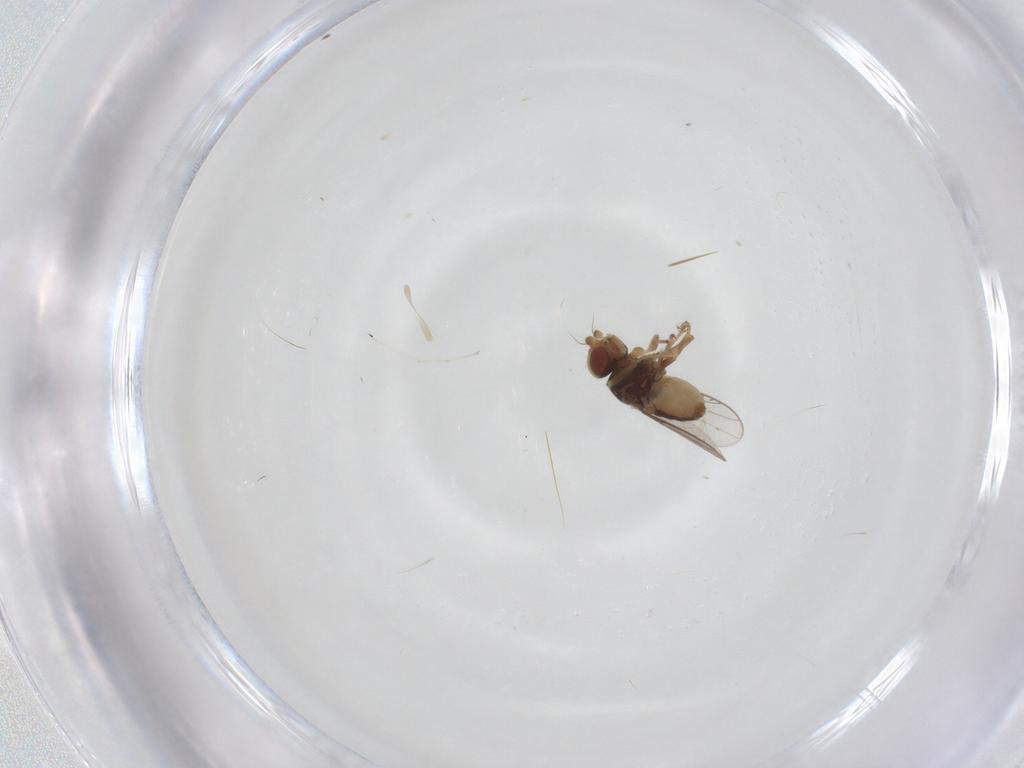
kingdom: Animalia
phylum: Arthropoda
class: Insecta
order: Diptera
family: Chloropidae
